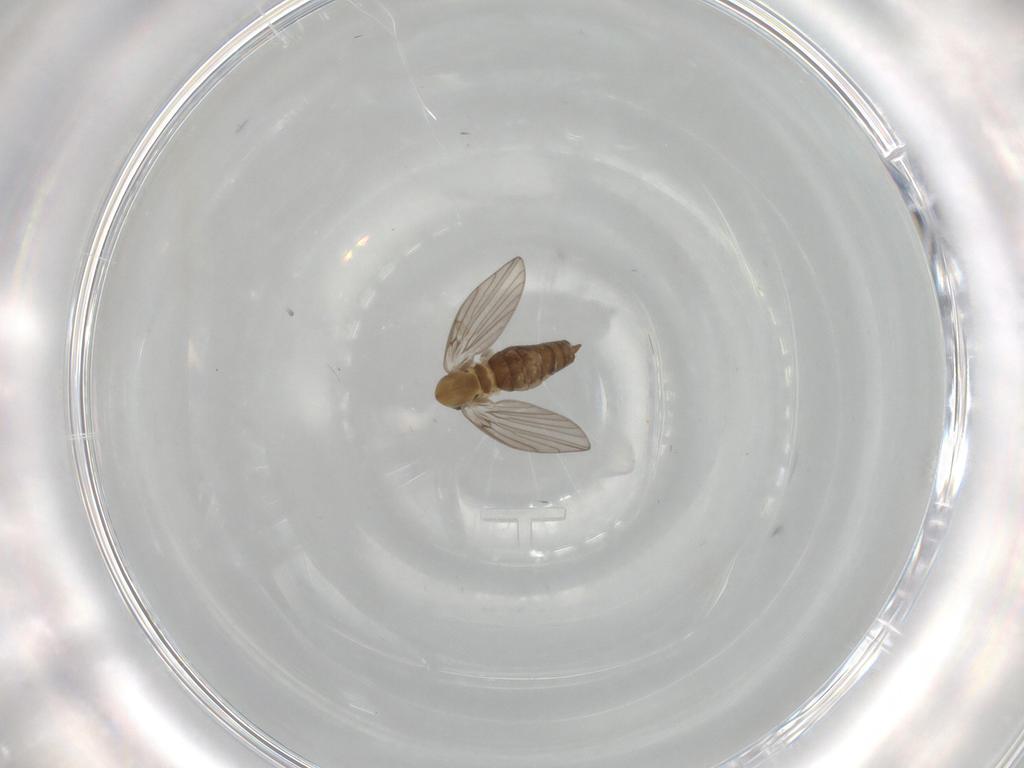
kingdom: Animalia
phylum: Arthropoda
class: Insecta
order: Diptera
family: Psychodidae
